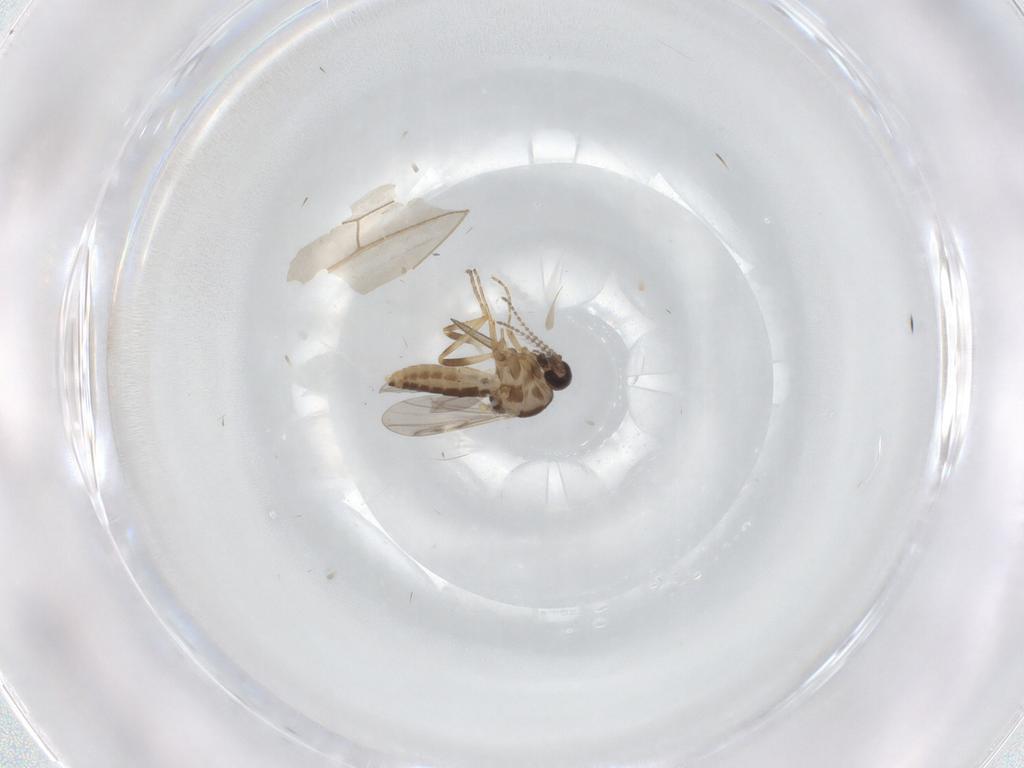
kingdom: Animalia
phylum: Arthropoda
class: Insecta
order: Diptera
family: Ceratopogonidae
